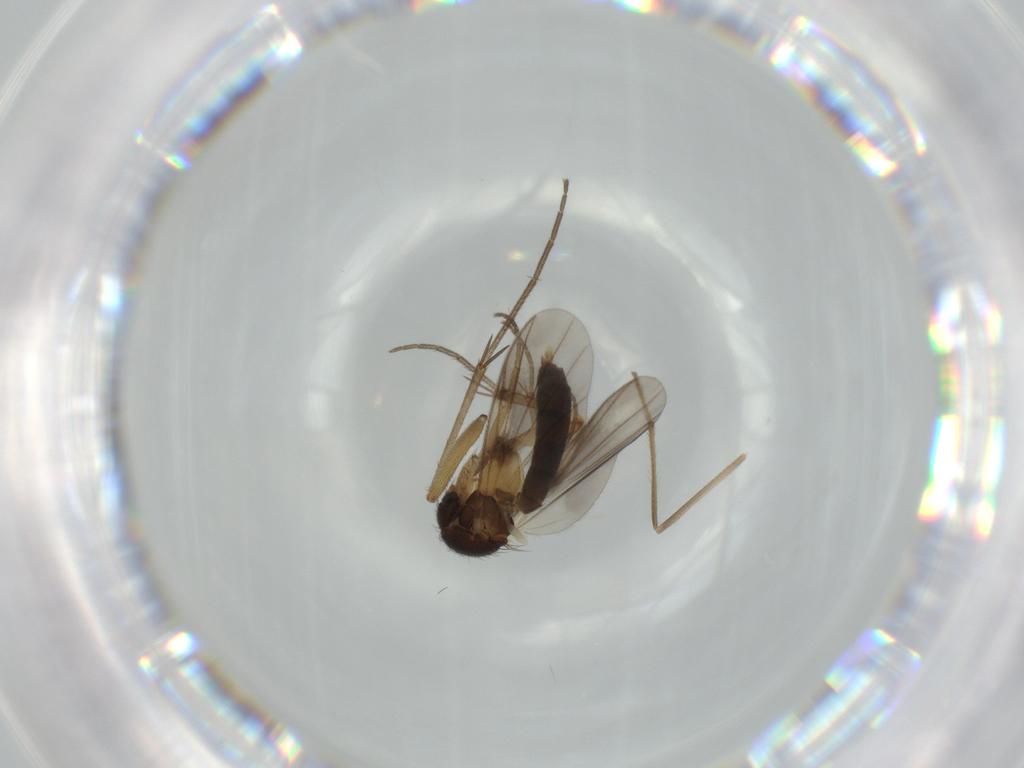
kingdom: Animalia
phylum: Arthropoda
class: Insecta
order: Diptera
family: Chironomidae
